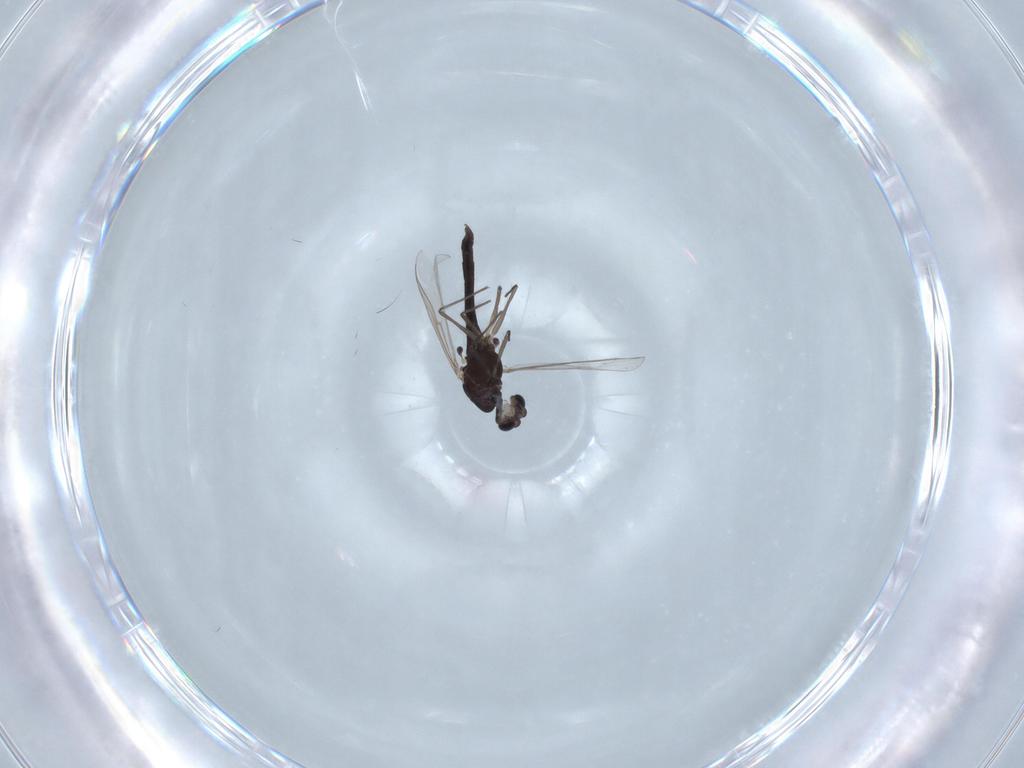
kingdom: Animalia
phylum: Arthropoda
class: Insecta
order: Diptera
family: Chironomidae
